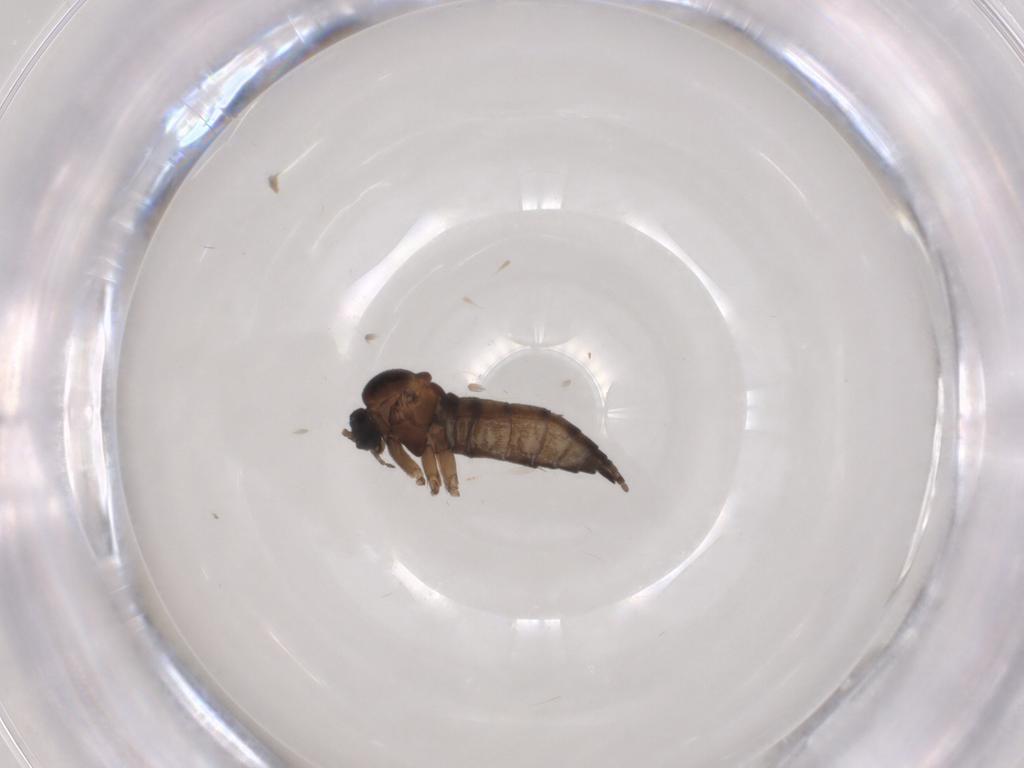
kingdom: Animalia
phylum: Arthropoda
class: Insecta
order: Diptera
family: Sciaridae
